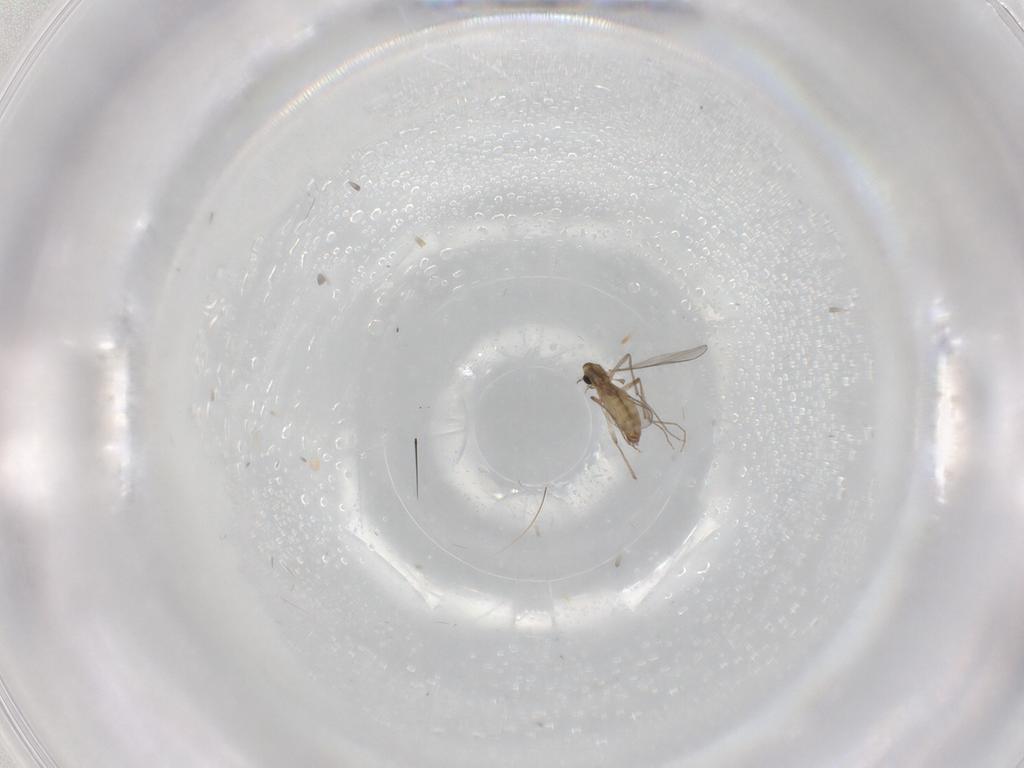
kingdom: Animalia
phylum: Arthropoda
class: Insecta
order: Diptera
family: Chironomidae
